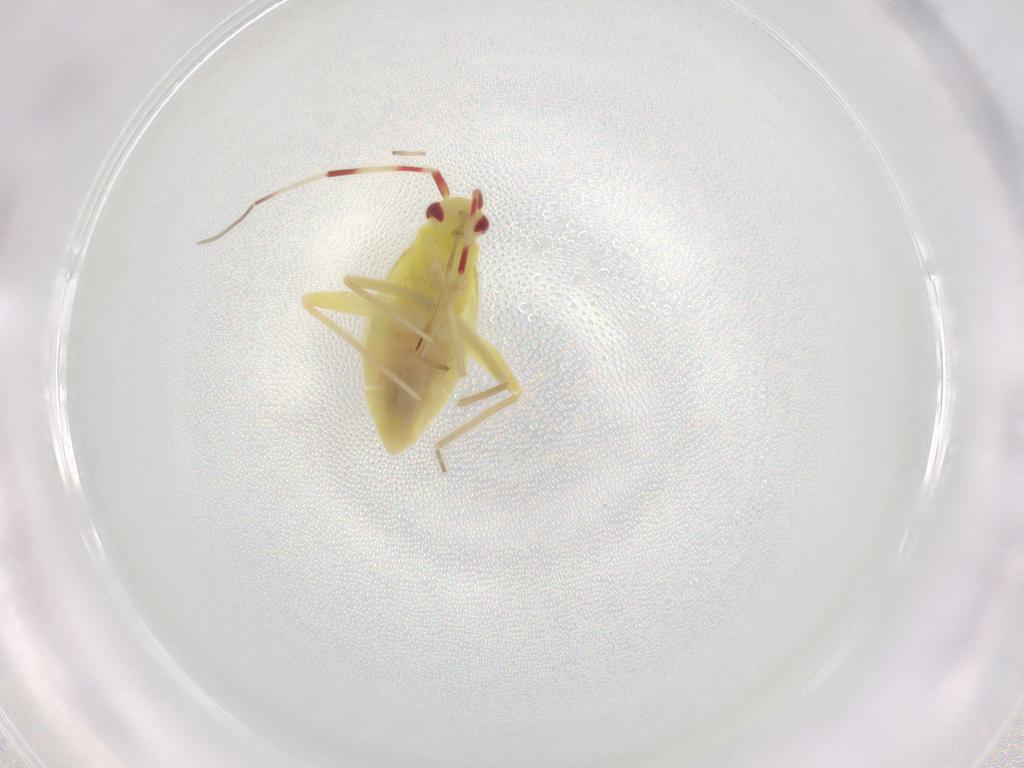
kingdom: Animalia
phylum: Arthropoda
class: Insecta
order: Hemiptera
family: Miridae
